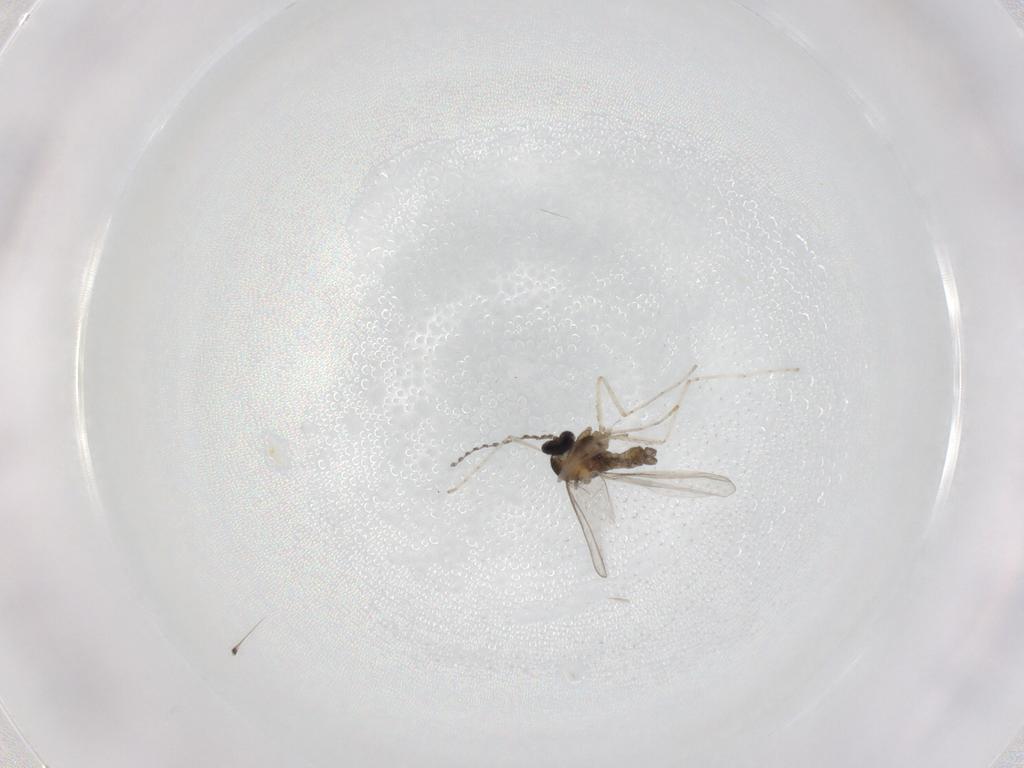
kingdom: Animalia
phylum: Arthropoda
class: Insecta
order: Diptera
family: Cecidomyiidae
